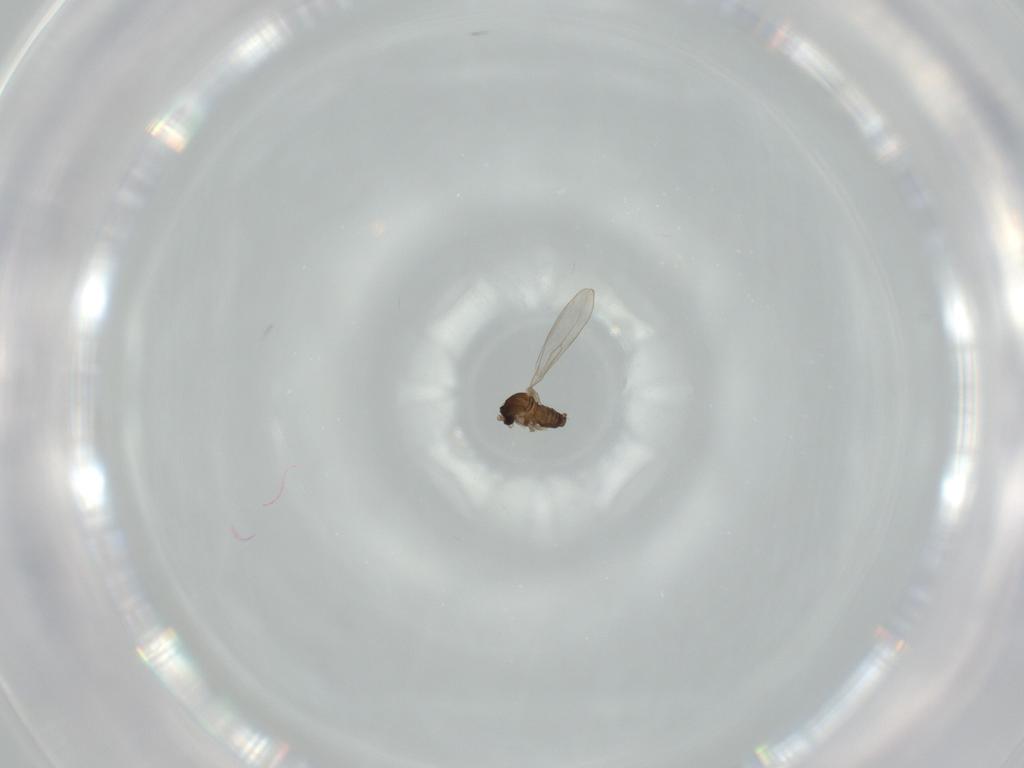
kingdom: Animalia
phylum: Arthropoda
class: Insecta
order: Diptera
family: Cecidomyiidae
